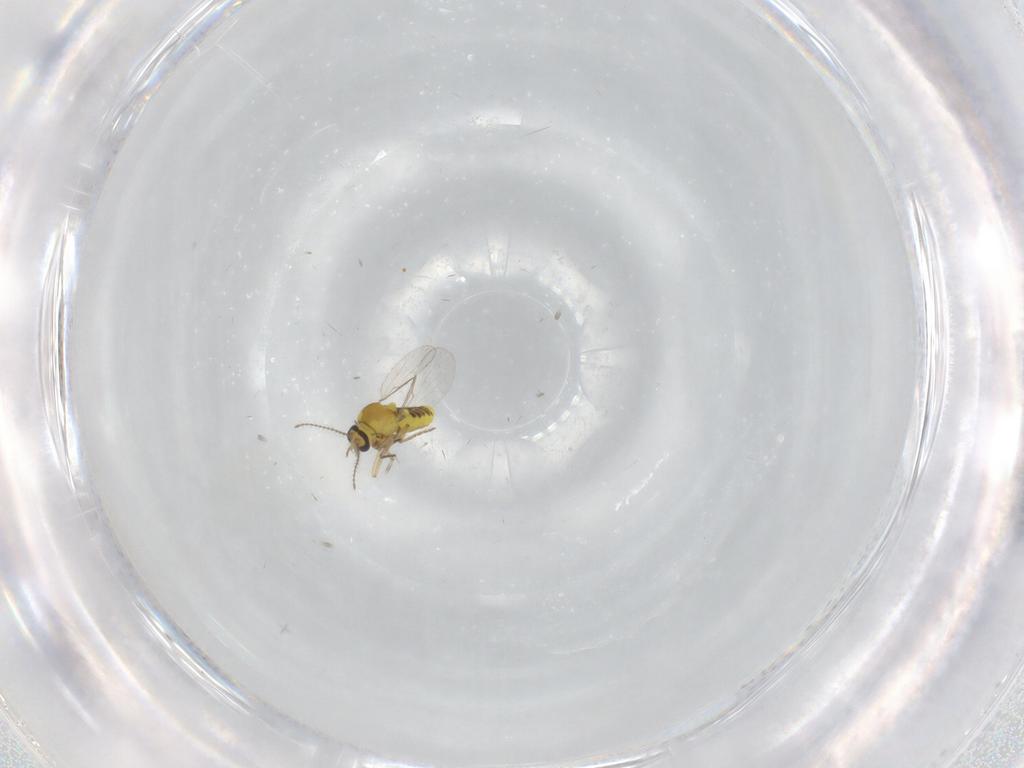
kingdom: Animalia
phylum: Arthropoda
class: Insecta
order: Diptera
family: Ceratopogonidae
